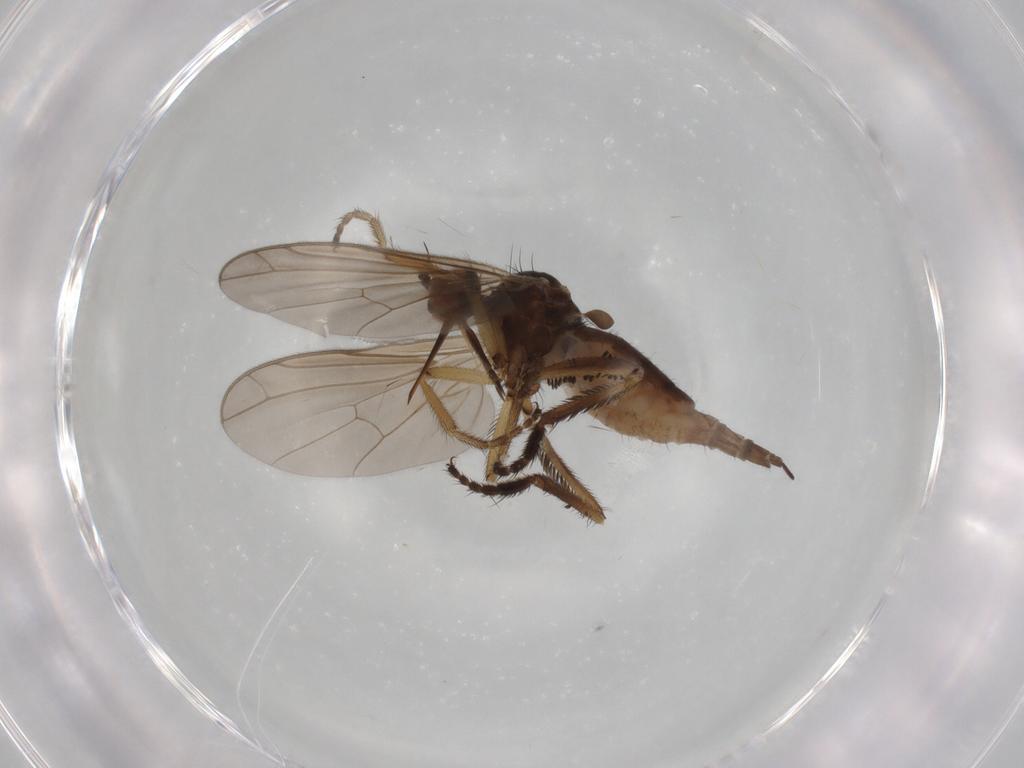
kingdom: Animalia
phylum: Arthropoda
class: Insecta
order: Diptera
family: Empididae
